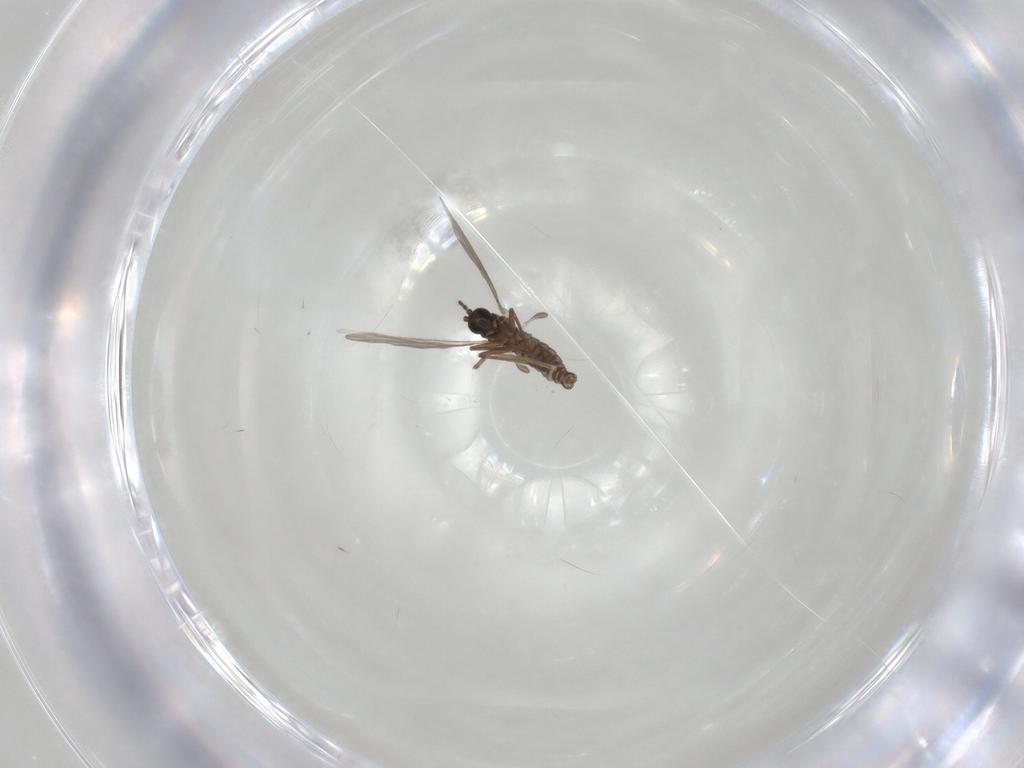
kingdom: Animalia
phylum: Arthropoda
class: Insecta
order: Diptera
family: Sciaridae
